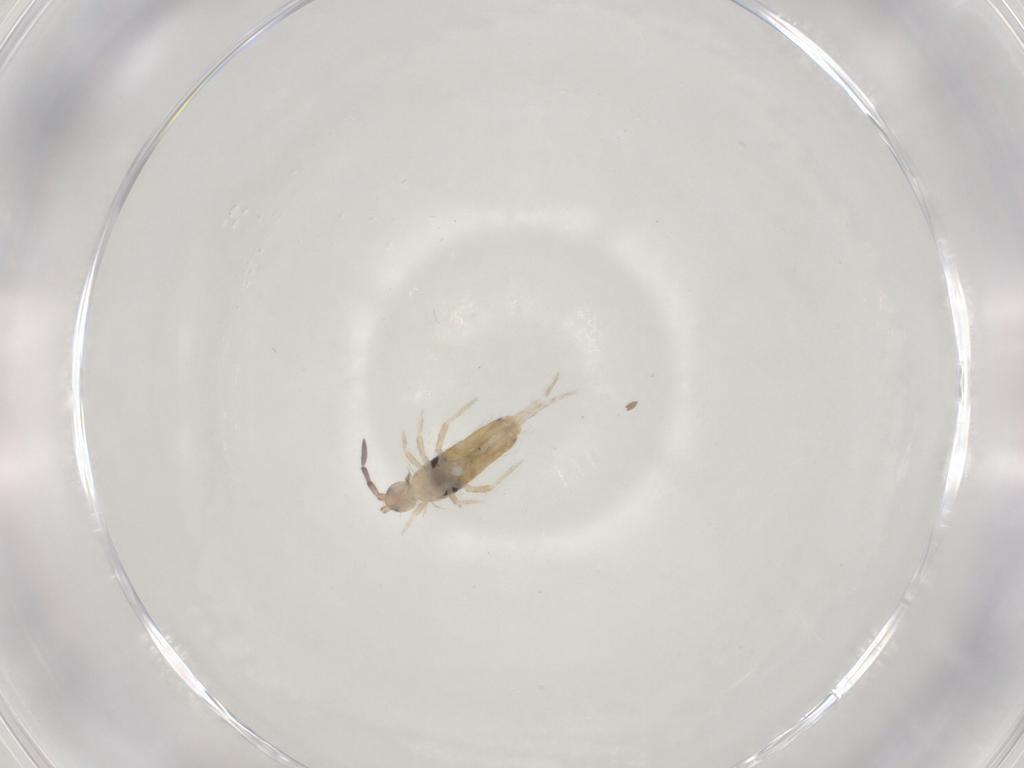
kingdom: Animalia
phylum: Arthropoda
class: Collembola
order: Entomobryomorpha
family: Entomobryidae
